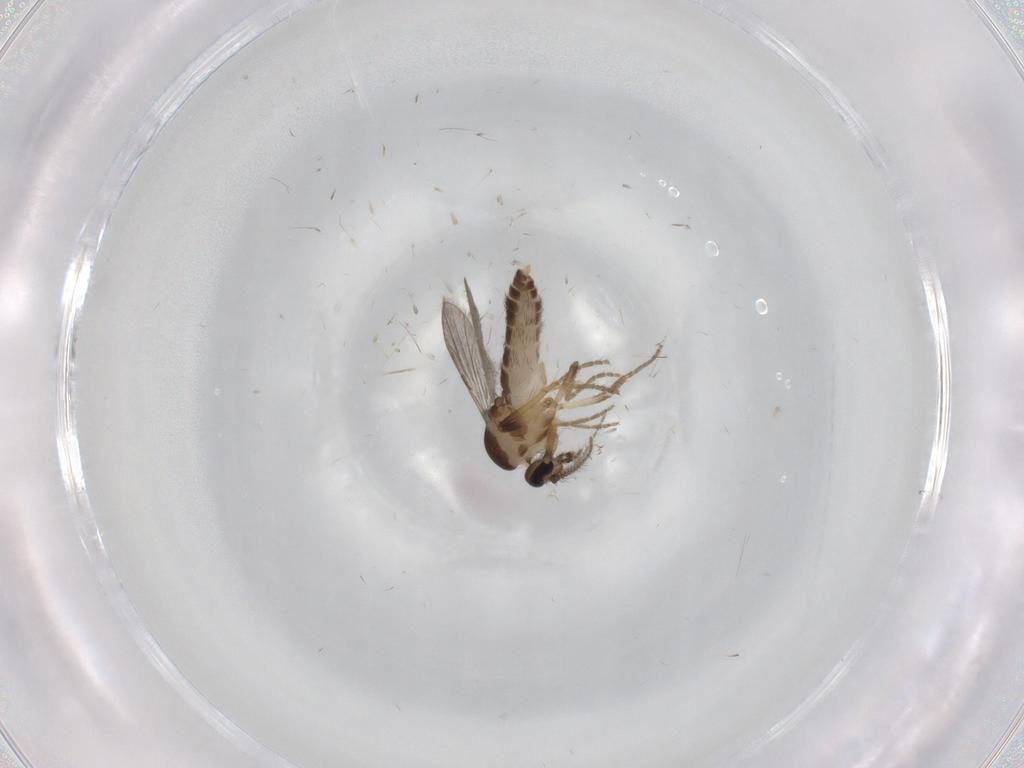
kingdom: Animalia
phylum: Arthropoda
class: Insecta
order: Diptera
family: Ceratopogonidae
